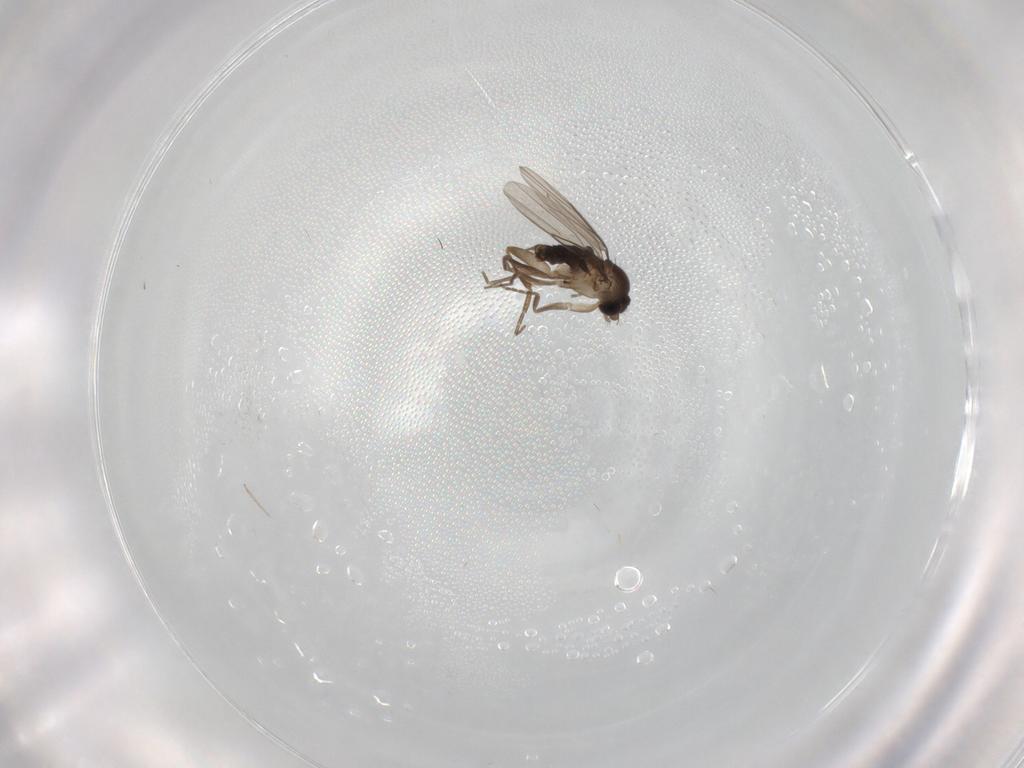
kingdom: Animalia
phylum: Arthropoda
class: Insecta
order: Diptera
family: Phoridae
